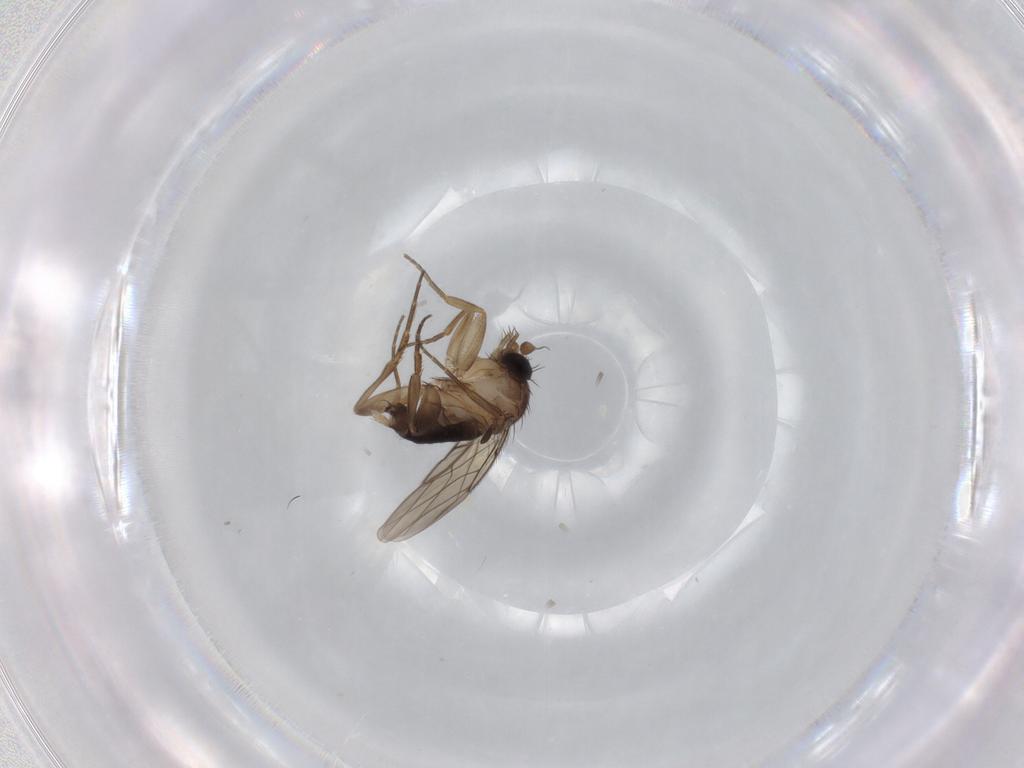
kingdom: Animalia
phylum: Arthropoda
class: Insecta
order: Diptera
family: Phoridae
